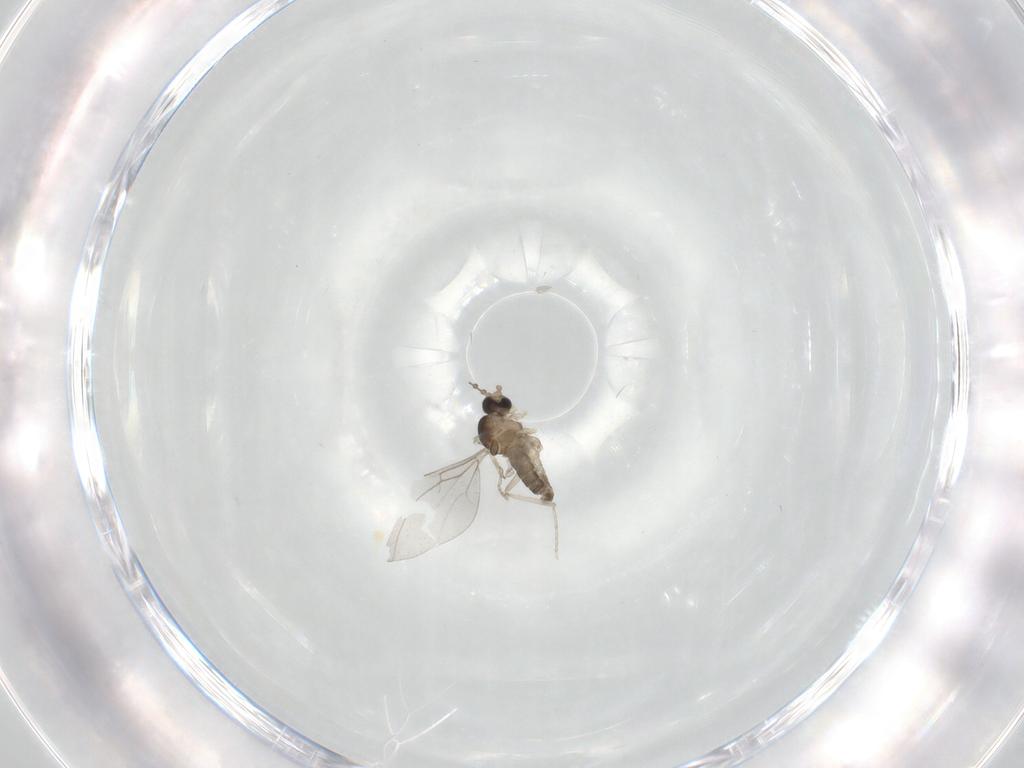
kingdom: Animalia
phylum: Arthropoda
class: Insecta
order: Diptera
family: Cecidomyiidae
